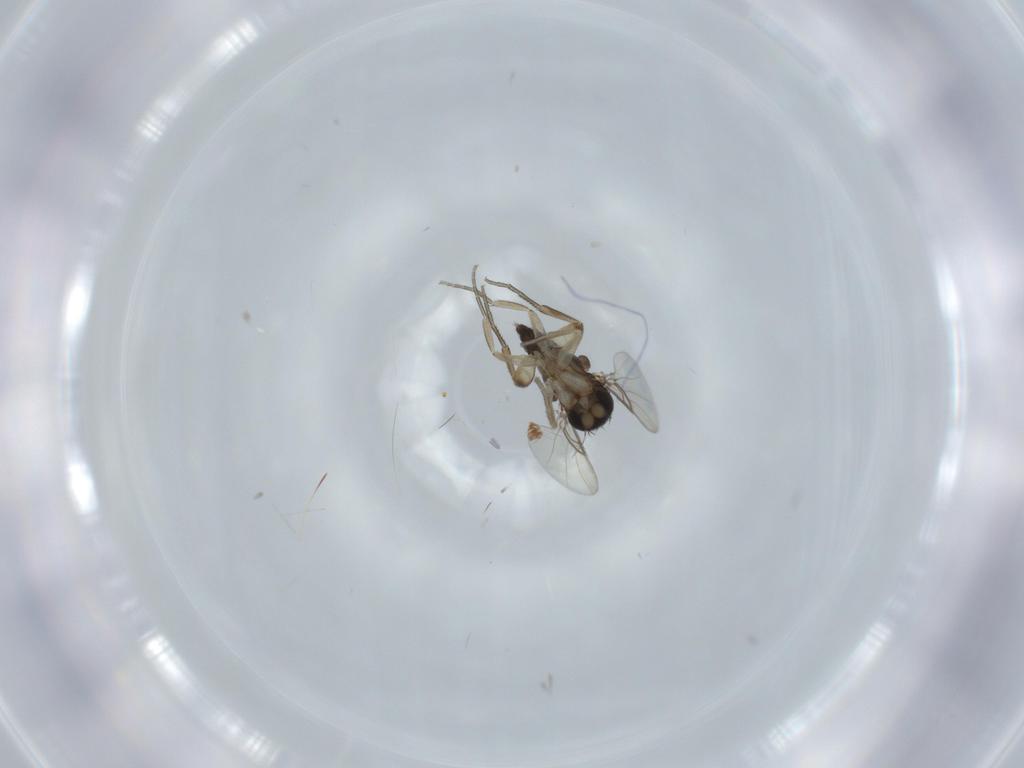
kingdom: Animalia
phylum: Arthropoda
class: Insecta
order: Diptera
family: Phoridae
